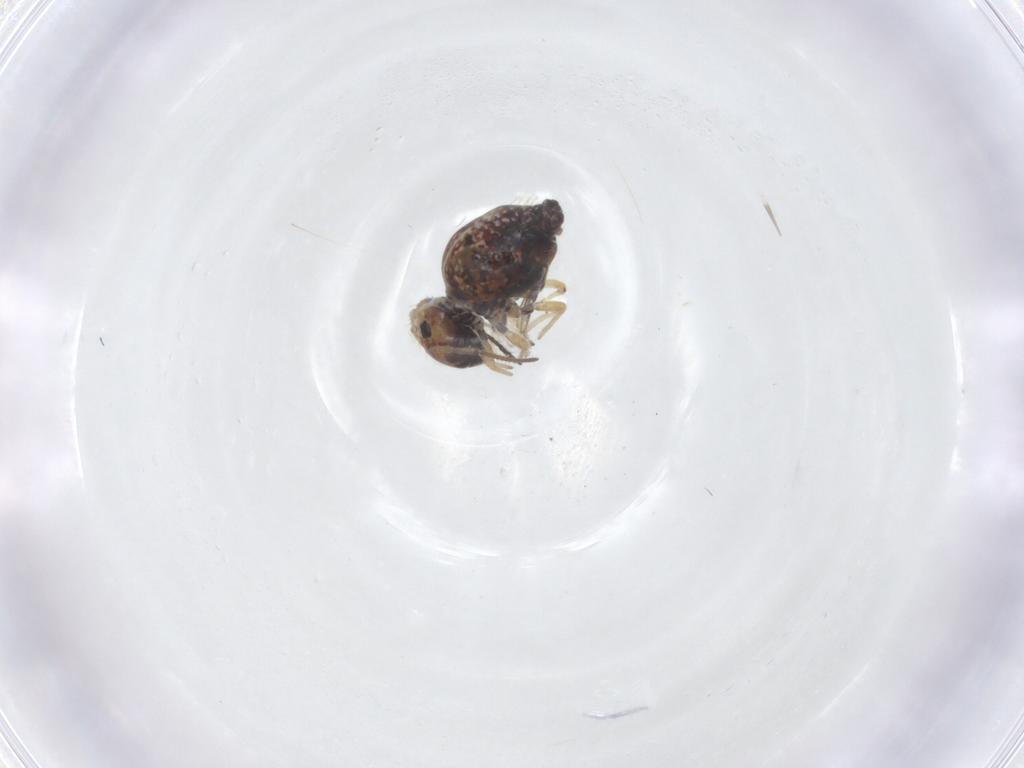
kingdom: Animalia
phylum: Arthropoda
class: Collembola
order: Symphypleona
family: Bourletiellidae
